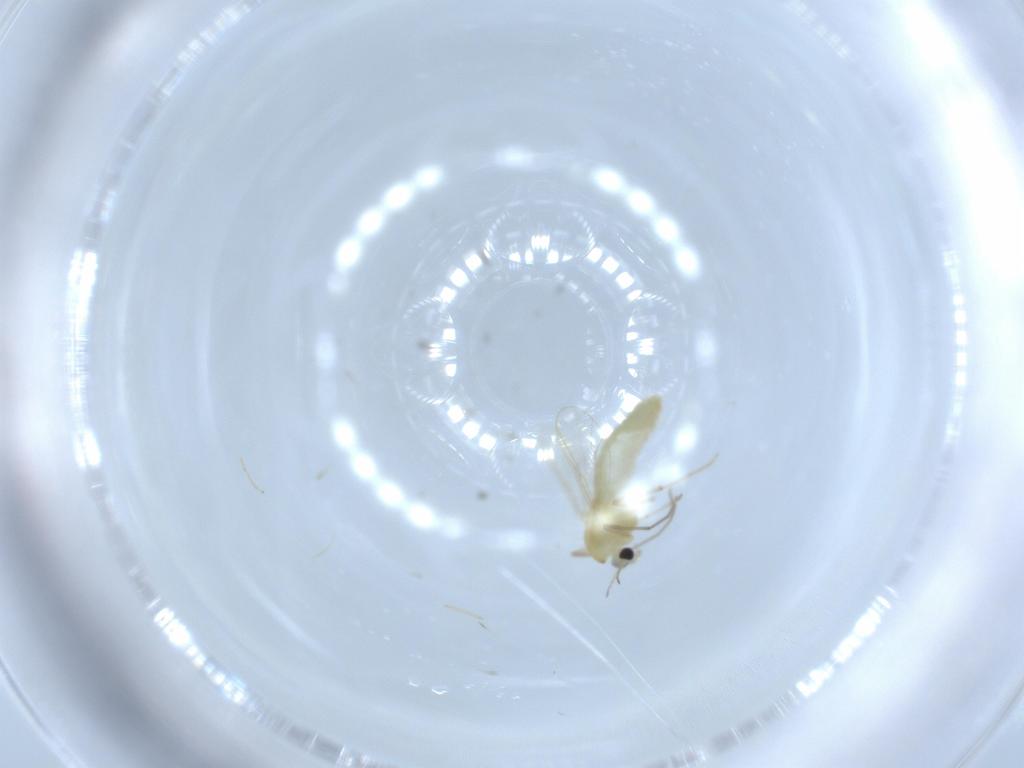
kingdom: Animalia
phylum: Arthropoda
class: Insecta
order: Diptera
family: Chironomidae
